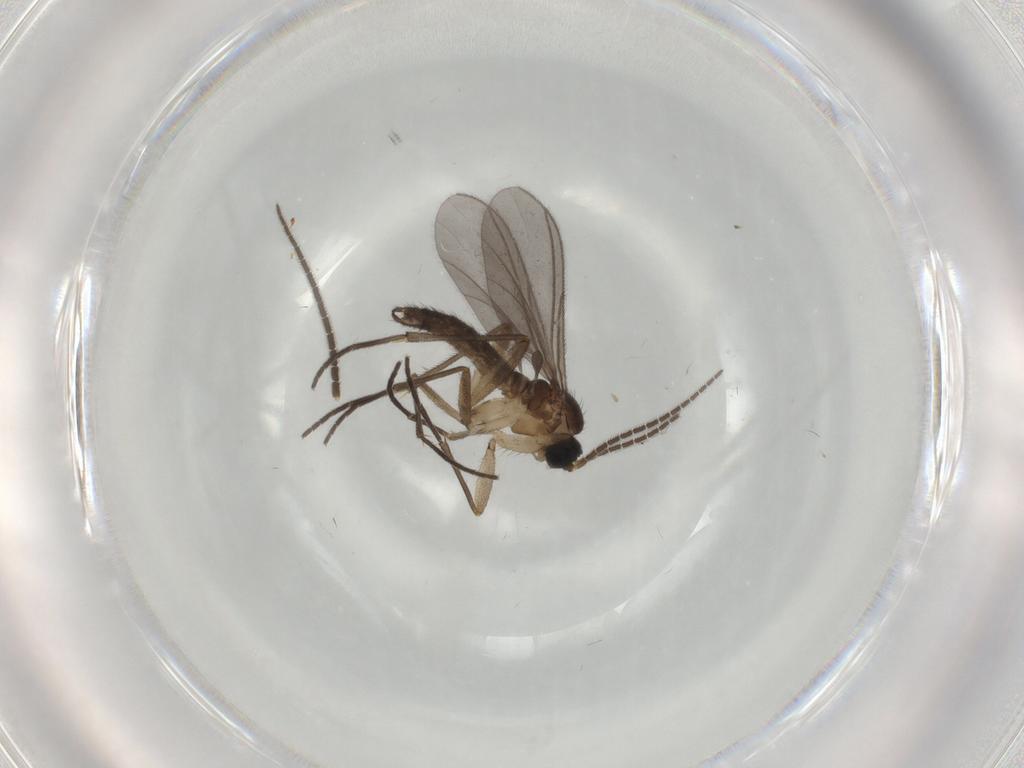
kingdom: Animalia
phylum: Arthropoda
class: Insecta
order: Diptera
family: Sciaridae
